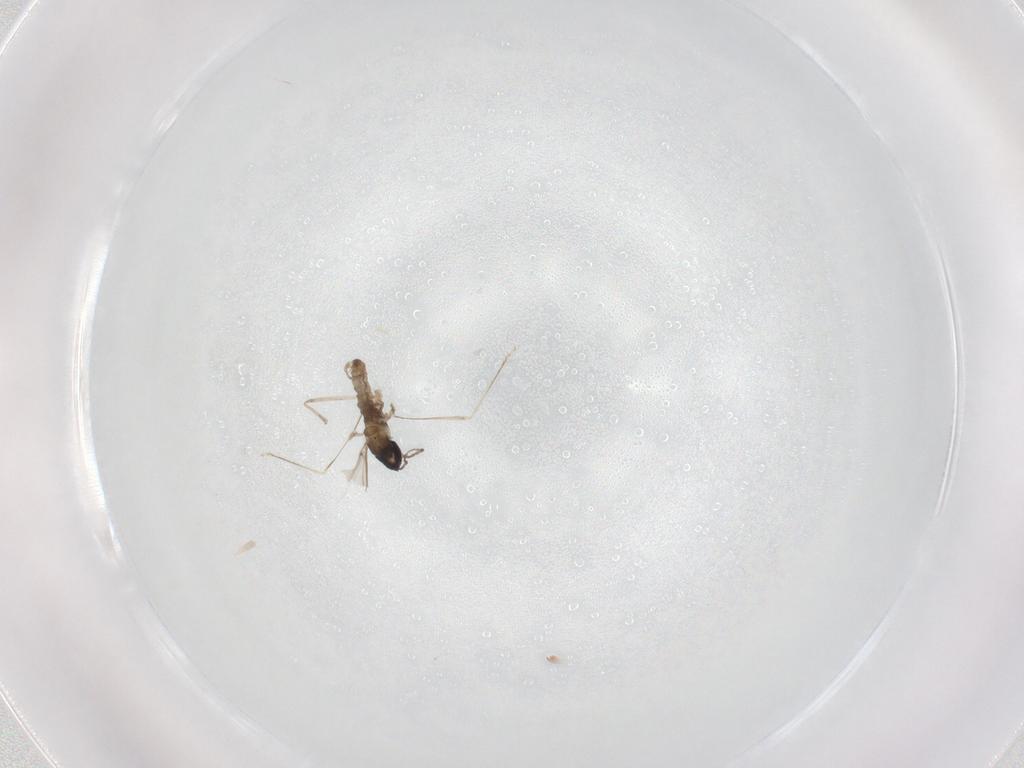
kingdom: Animalia
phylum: Arthropoda
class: Insecta
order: Diptera
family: Cecidomyiidae
